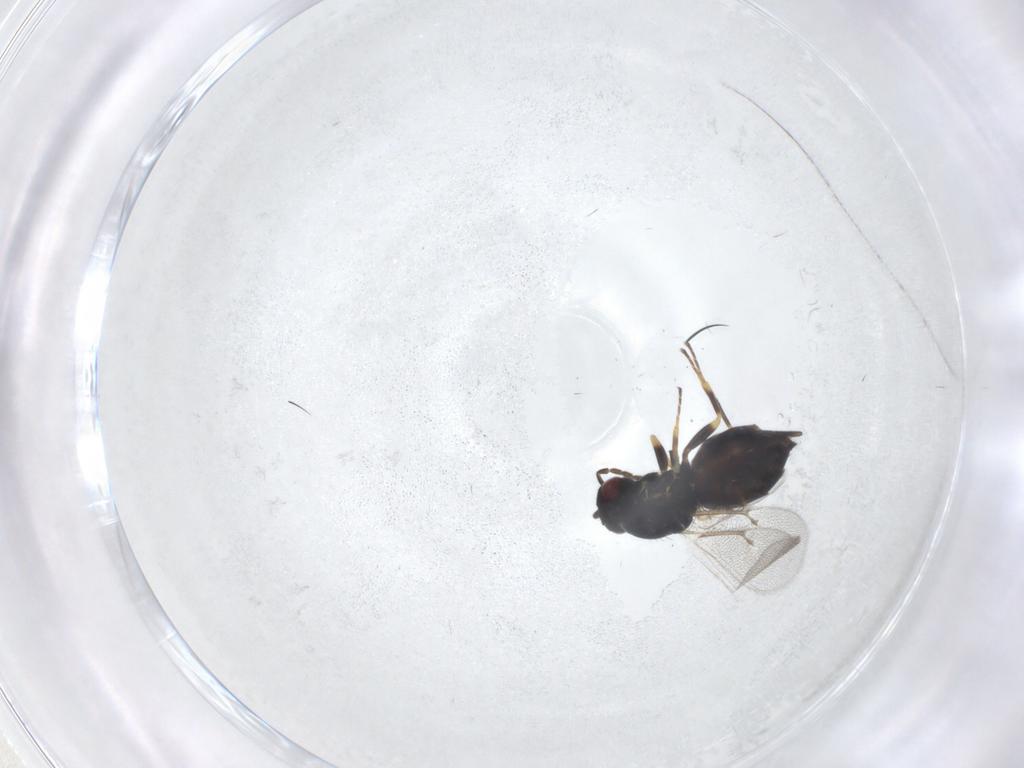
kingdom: Animalia
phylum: Arthropoda
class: Insecta
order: Hymenoptera
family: Eulophidae
